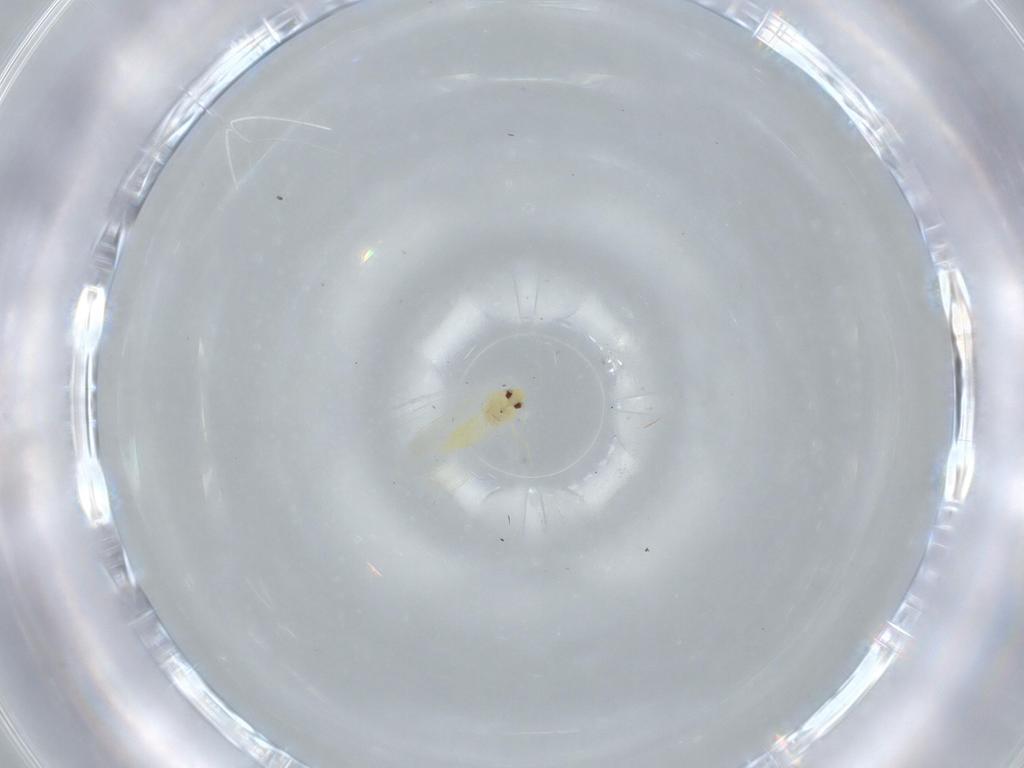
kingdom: Animalia
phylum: Arthropoda
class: Insecta
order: Hemiptera
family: Aleyrodidae
